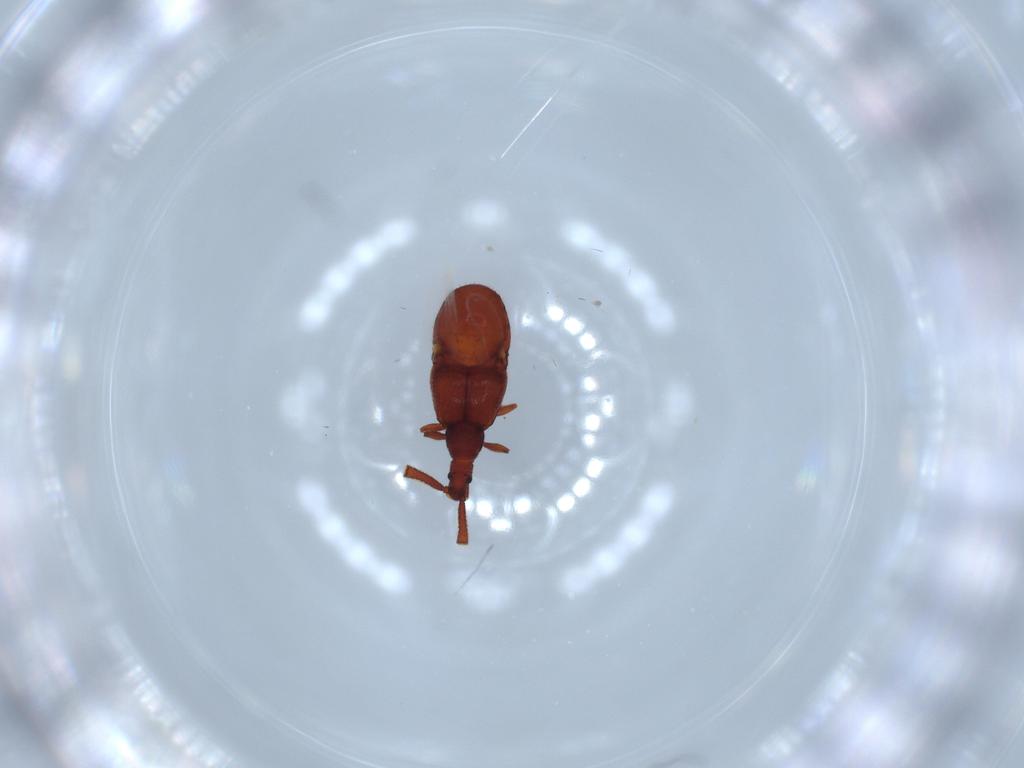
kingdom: Animalia
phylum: Arthropoda
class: Insecta
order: Coleoptera
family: Staphylinidae
